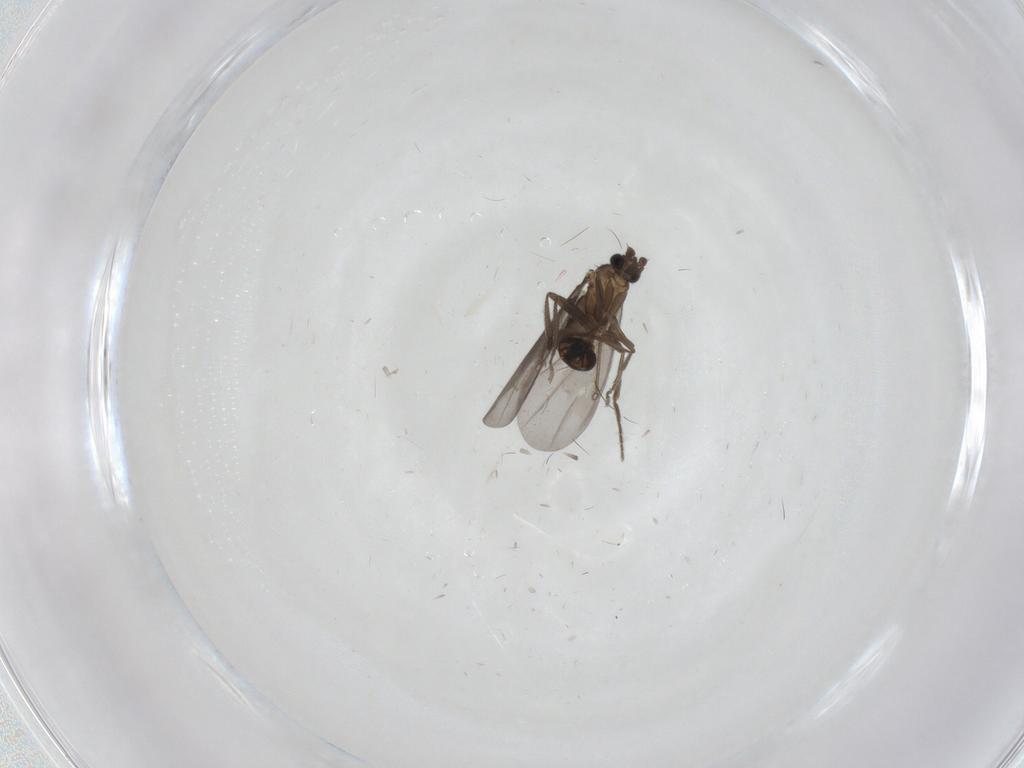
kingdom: Animalia
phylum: Arthropoda
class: Insecta
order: Diptera
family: Phoridae
